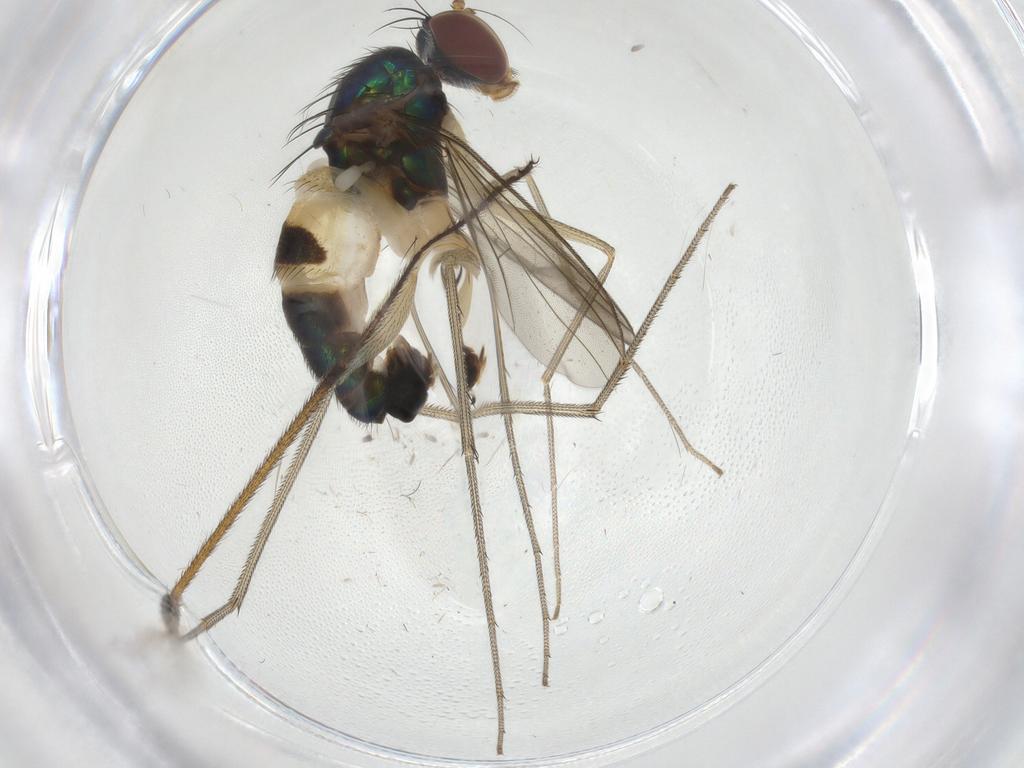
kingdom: Animalia
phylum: Arthropoda
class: Insecta
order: Diptera
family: Dolichopodidae
